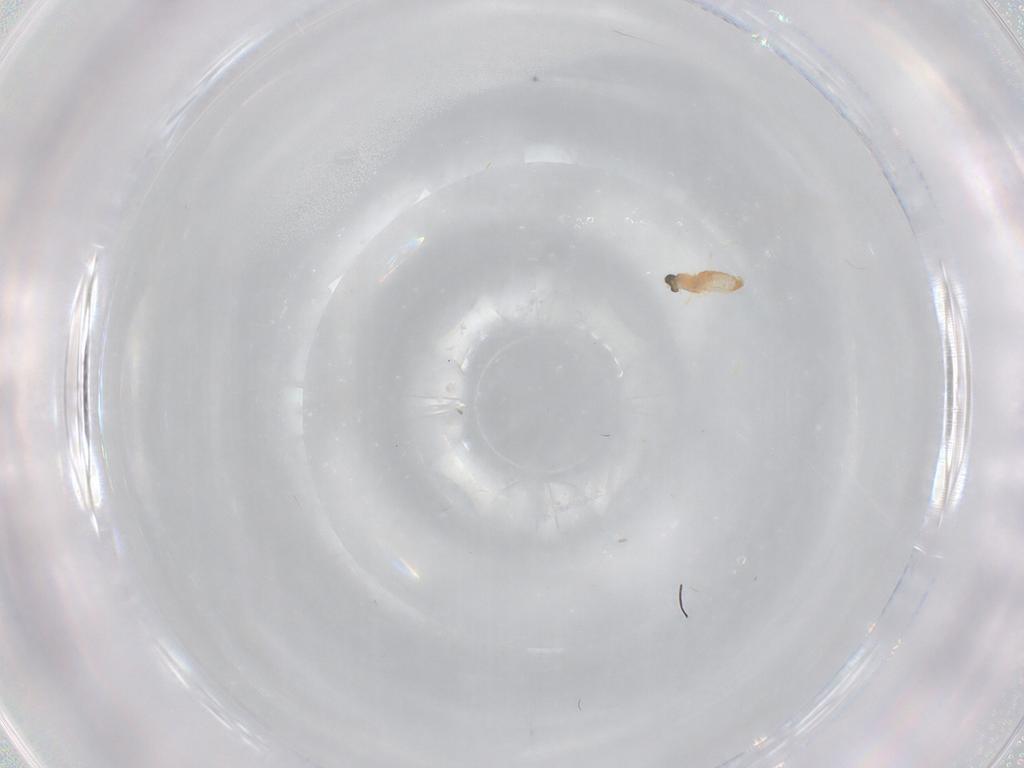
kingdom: Animalia
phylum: Arthropoda
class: Insecta
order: Diptera
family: Cecidomyiidae
